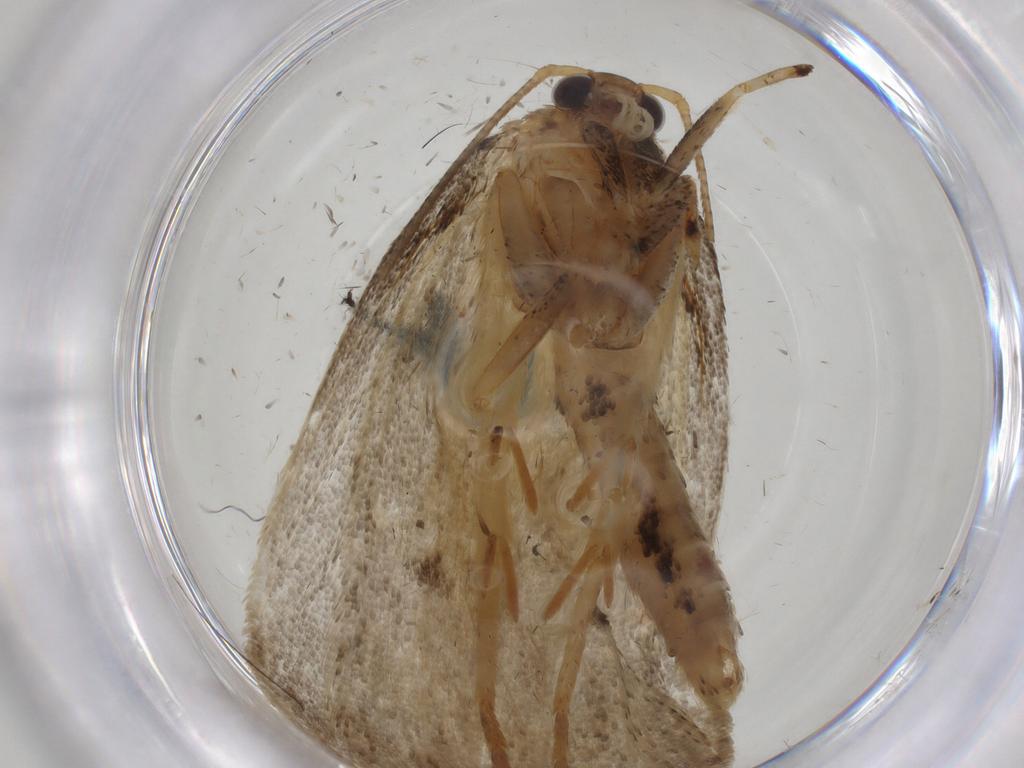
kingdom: Animalia
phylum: Arthropoda
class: Insecta
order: Lepidoptera
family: Depressariidae
